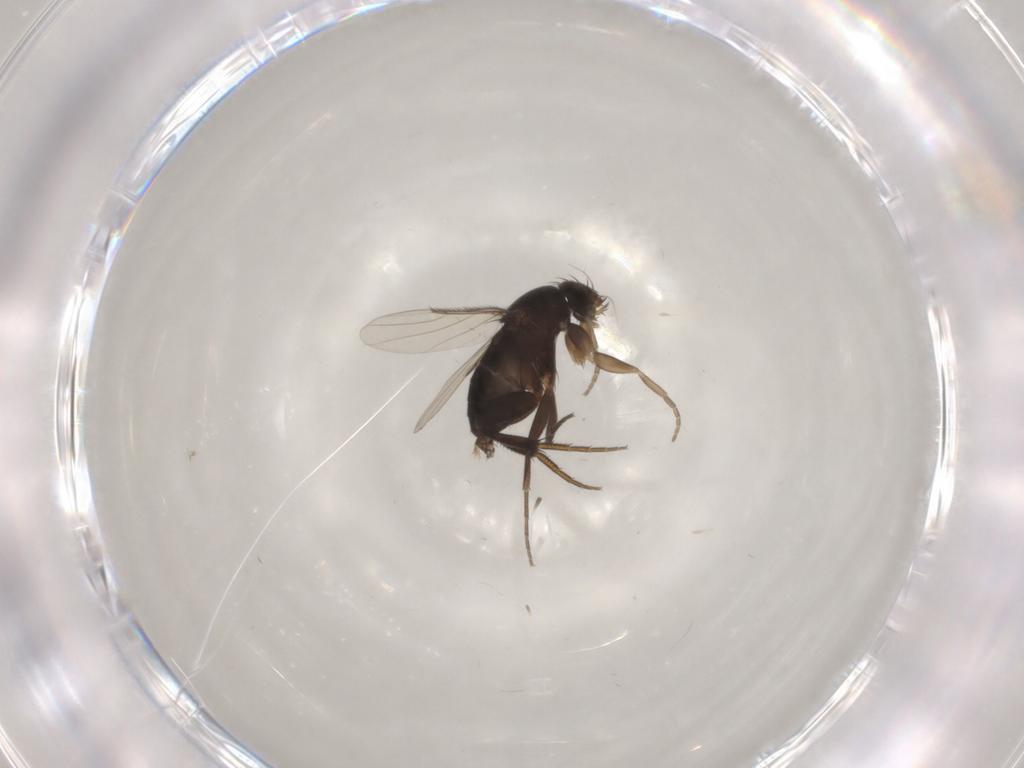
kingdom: Animalia
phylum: Arthropoda
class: Insecta
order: Diptera
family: Phoridae
